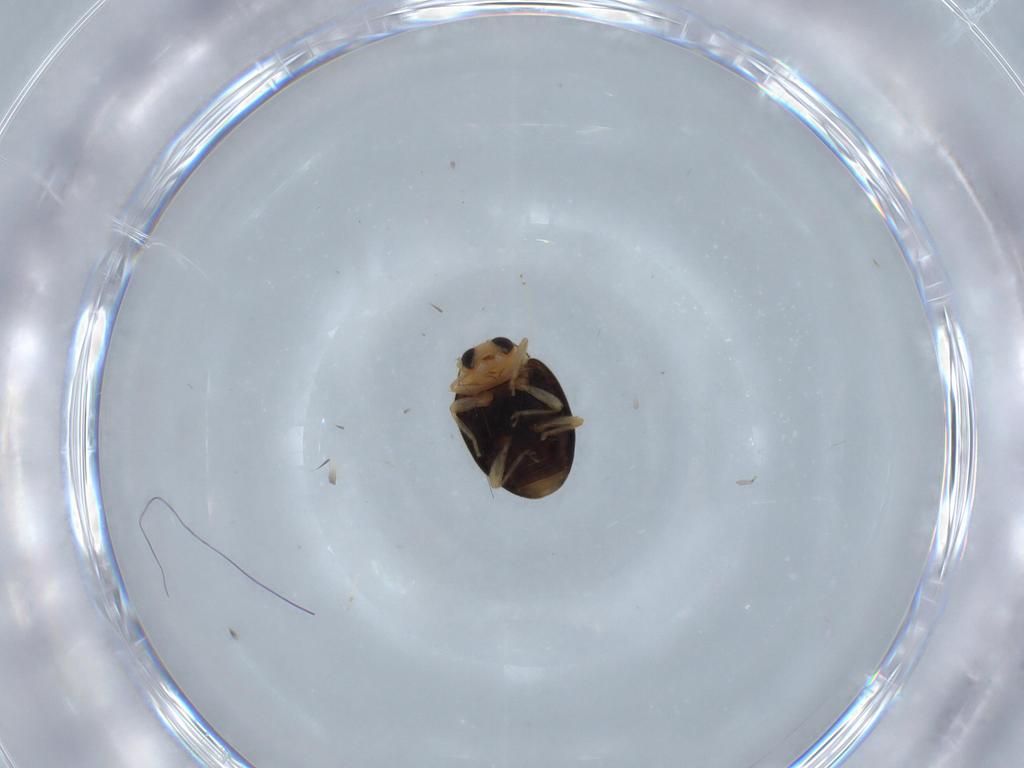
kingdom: Animalia
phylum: Arthropoda
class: Insecta
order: Coleoptera
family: Coccinellidae
